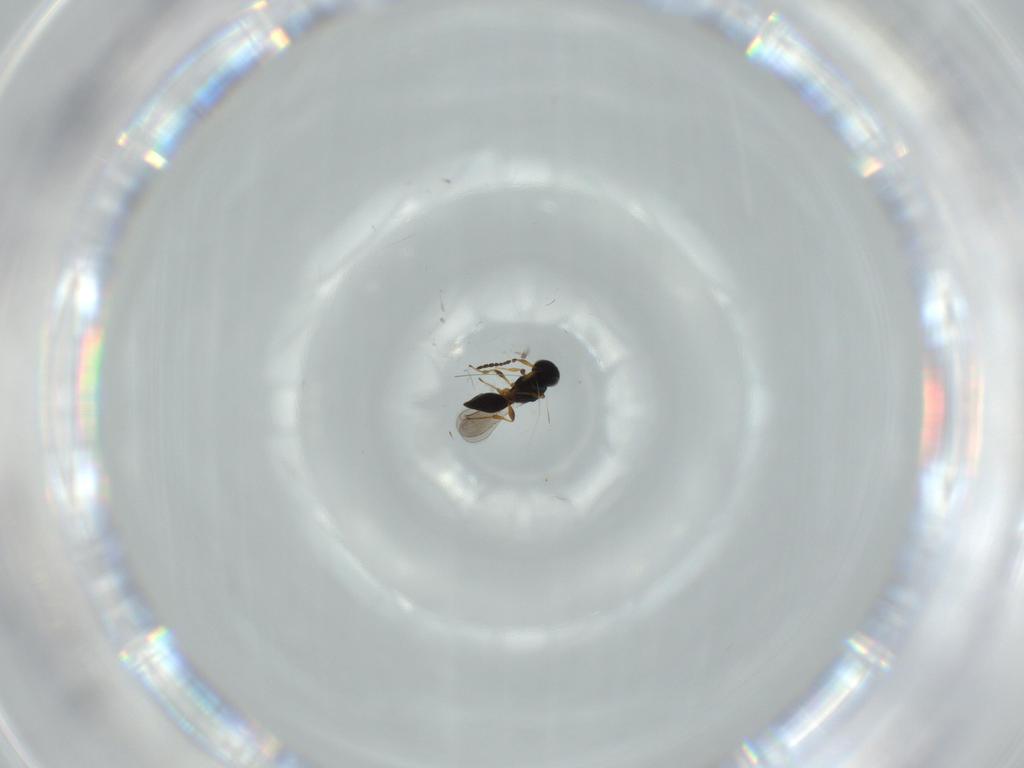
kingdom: Animalia
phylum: Arthropoda
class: Insecta
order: Hymenoptera
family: Platygastridae
